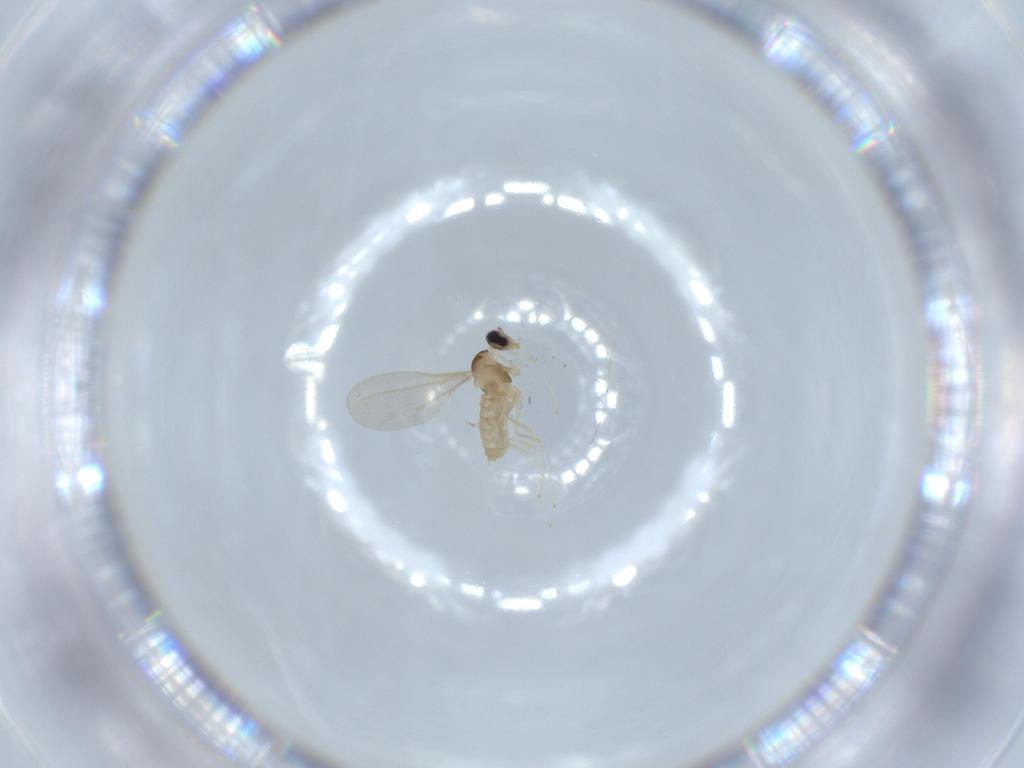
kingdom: Animalia
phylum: Arthropoda
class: Insecta
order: Diptera
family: Cecidomyiidae
